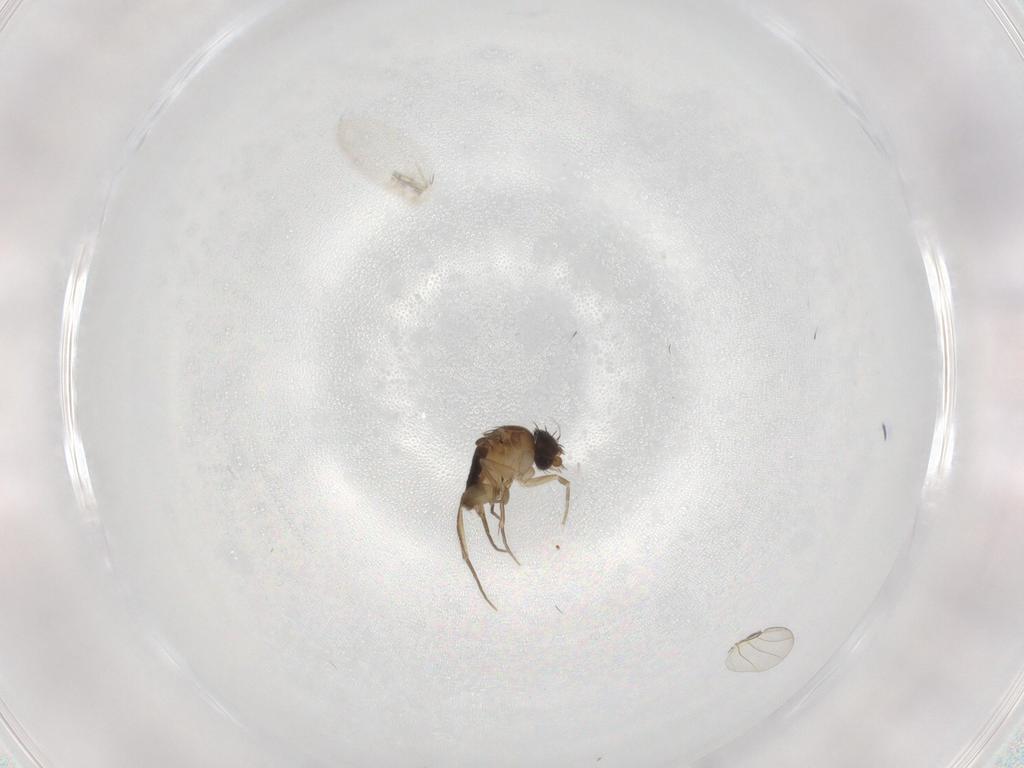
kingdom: Animalia
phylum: Arthropoda
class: Insecta
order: Diptera
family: Phoridae
